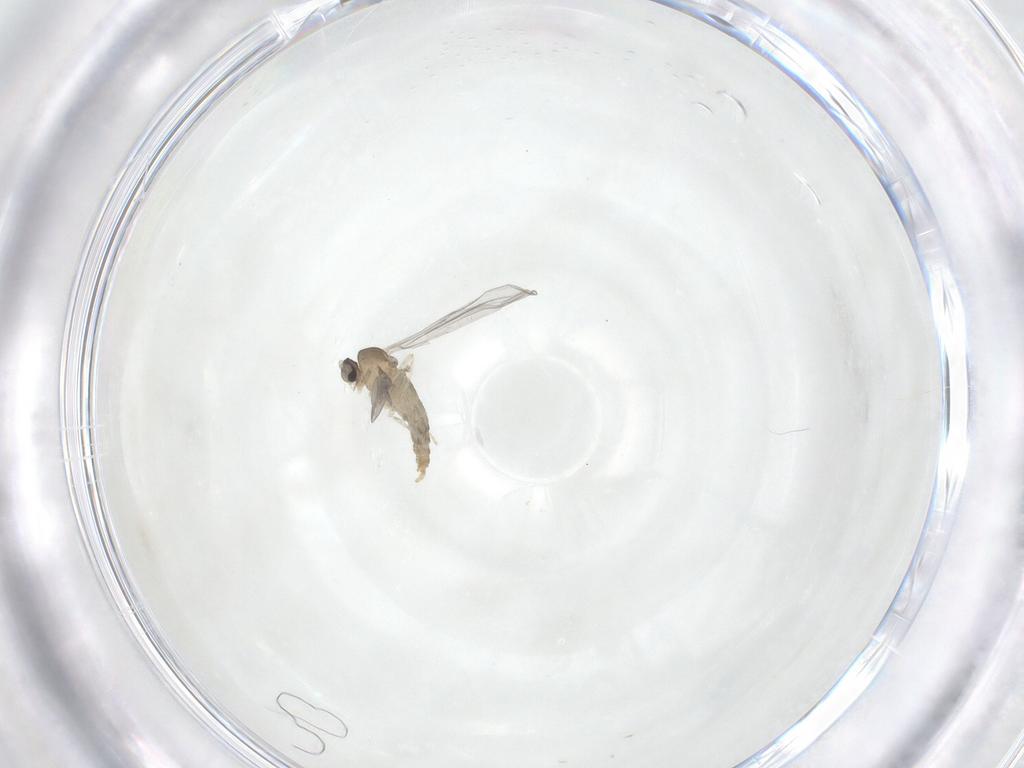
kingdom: Animalia
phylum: Arthropoda
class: Insecta
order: Diptera
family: Cecidomyiidae
